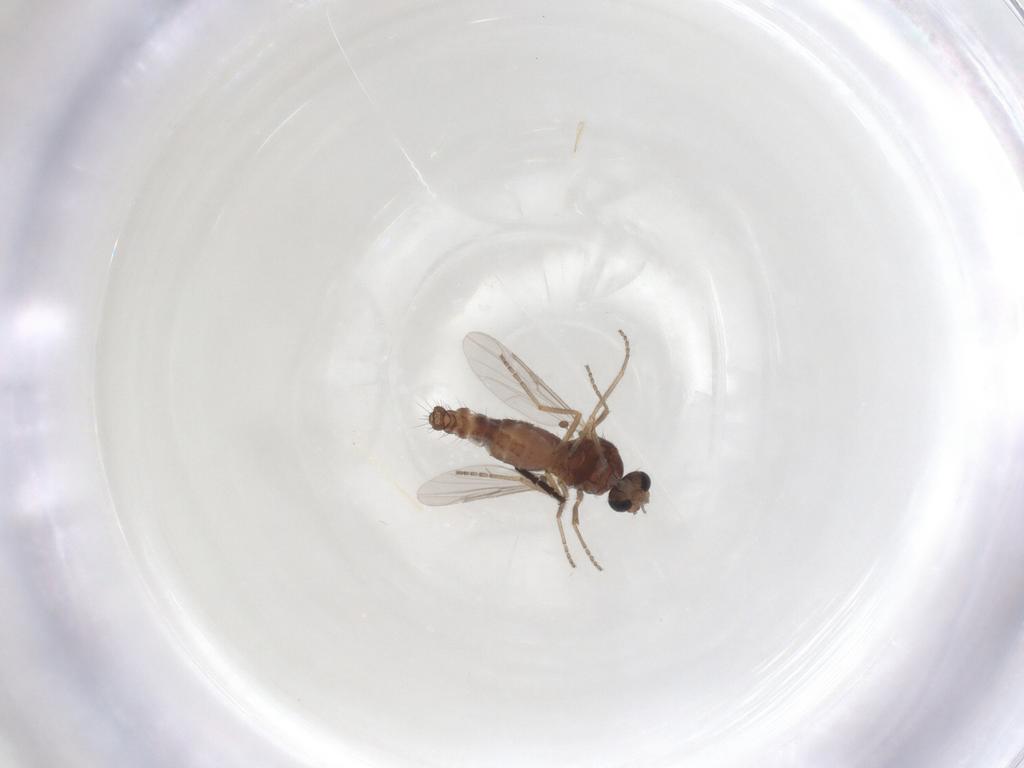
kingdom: Animalia
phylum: Arthropoda
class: Insecta
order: Diptera
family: Ceratopogonidae
